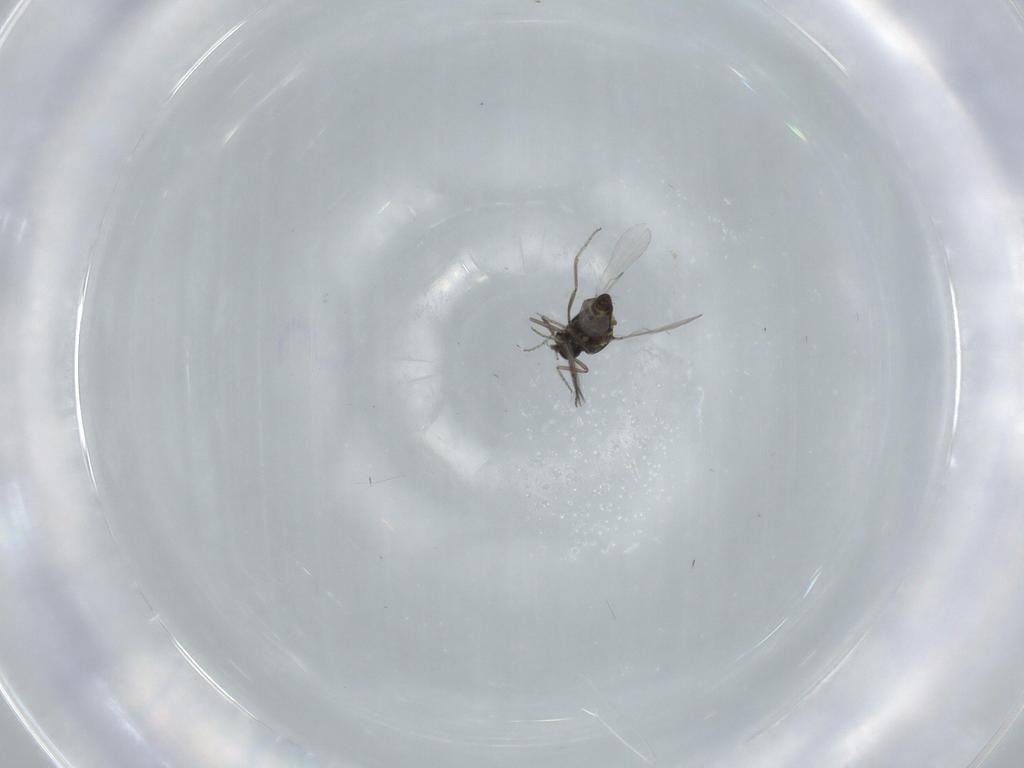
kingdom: Animalia
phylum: Arthropoda
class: Insecta
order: Diptera
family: Ceratopogonidae
